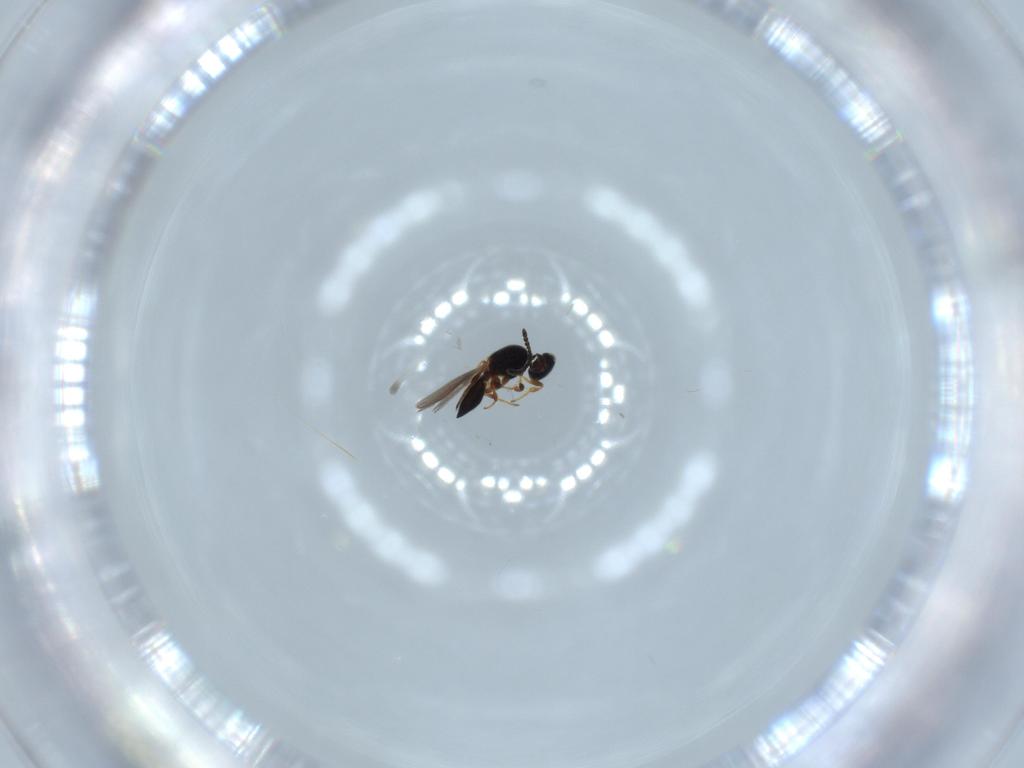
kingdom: Animalia
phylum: Arthropoda
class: Insecta
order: Hymenoptera
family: Platygastridae
